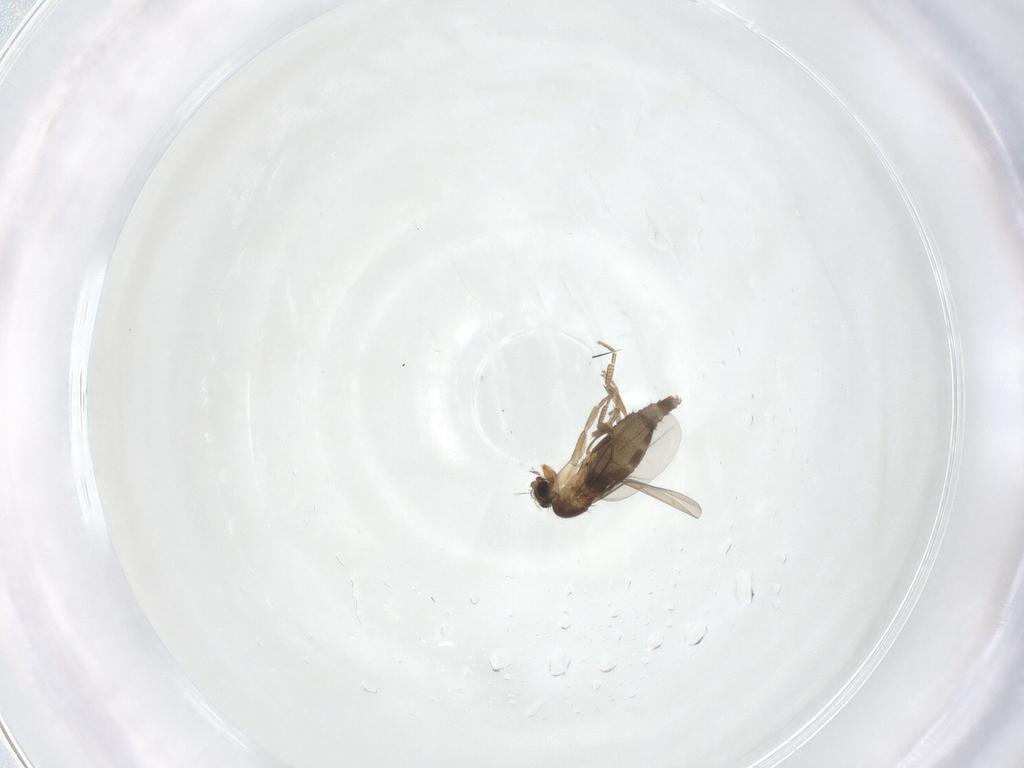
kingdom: Animalia
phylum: Arthropoda
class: Insecta
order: Diptera
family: Phoridae
